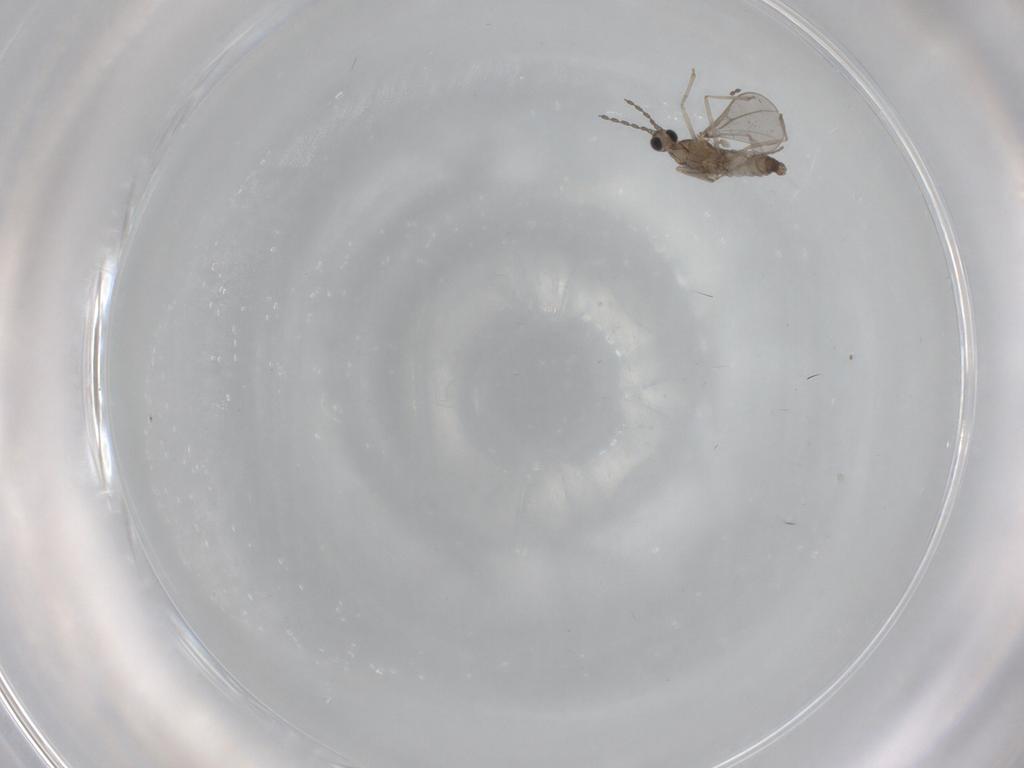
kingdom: Animalia
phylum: Arthropoda
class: Insecta
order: Diptera
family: Cecidomyiidae
